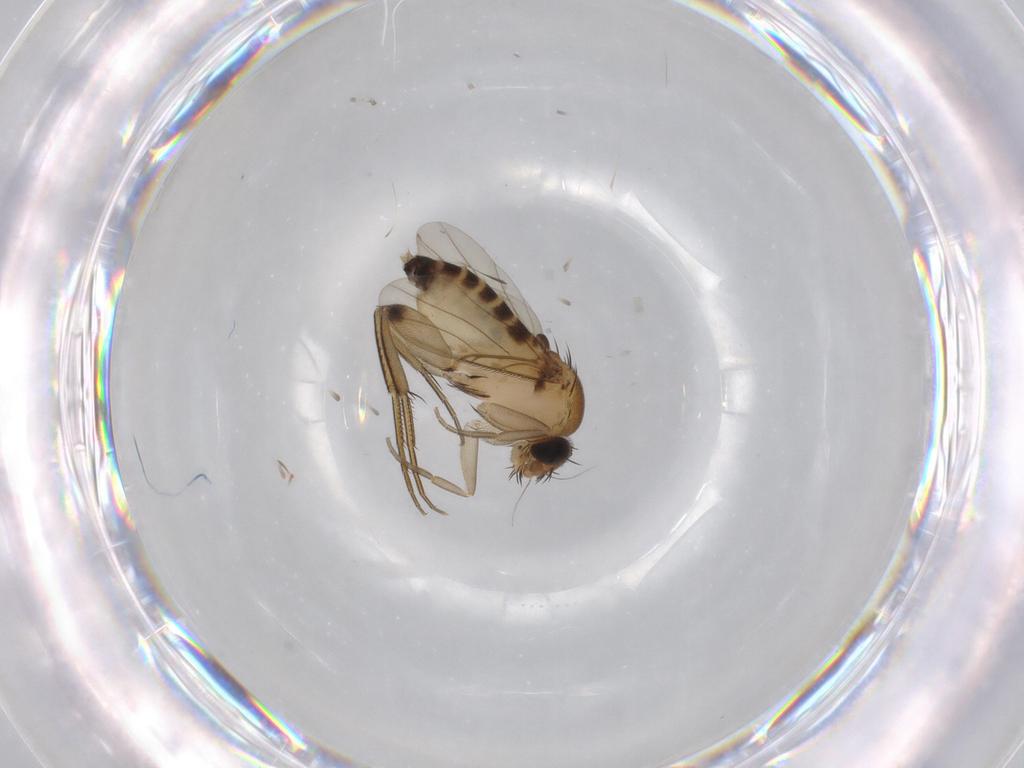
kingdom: Animalia
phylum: Arthropoda
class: Insecta
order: Diptera
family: Phoridae
